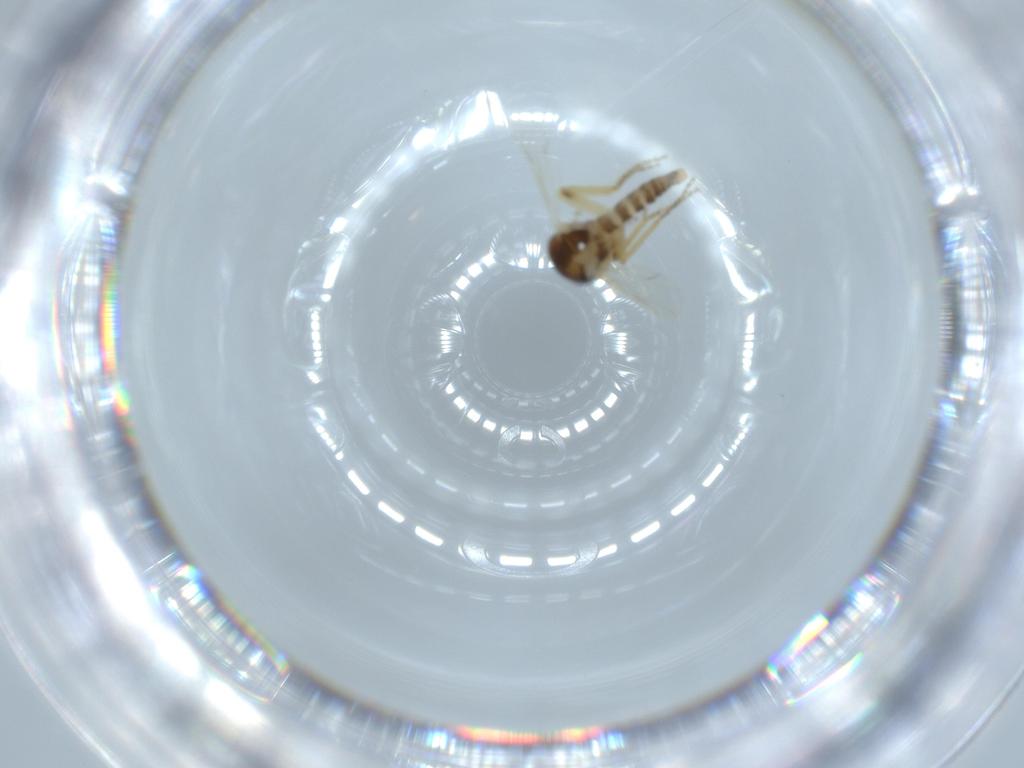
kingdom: Animalia
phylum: Arthropoda
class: Insecta
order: Diptera
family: Ceratopogonidae
